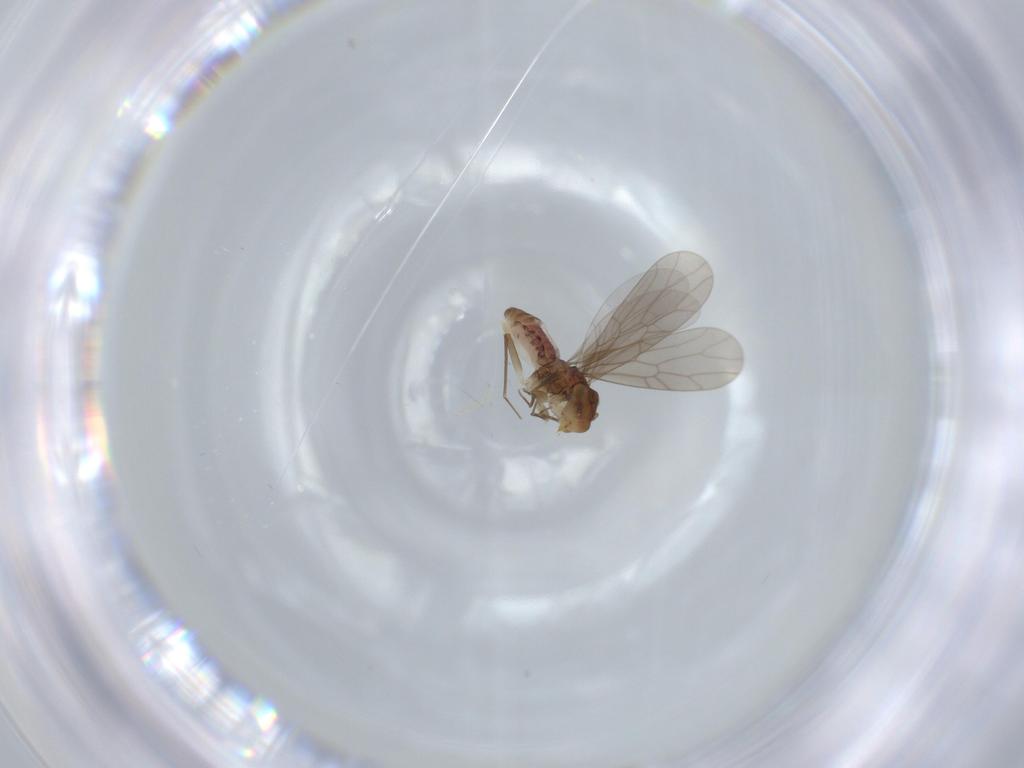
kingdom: Animalia
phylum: Arthropoda
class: Insecta
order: Psocodea
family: Lepidopsocidae
